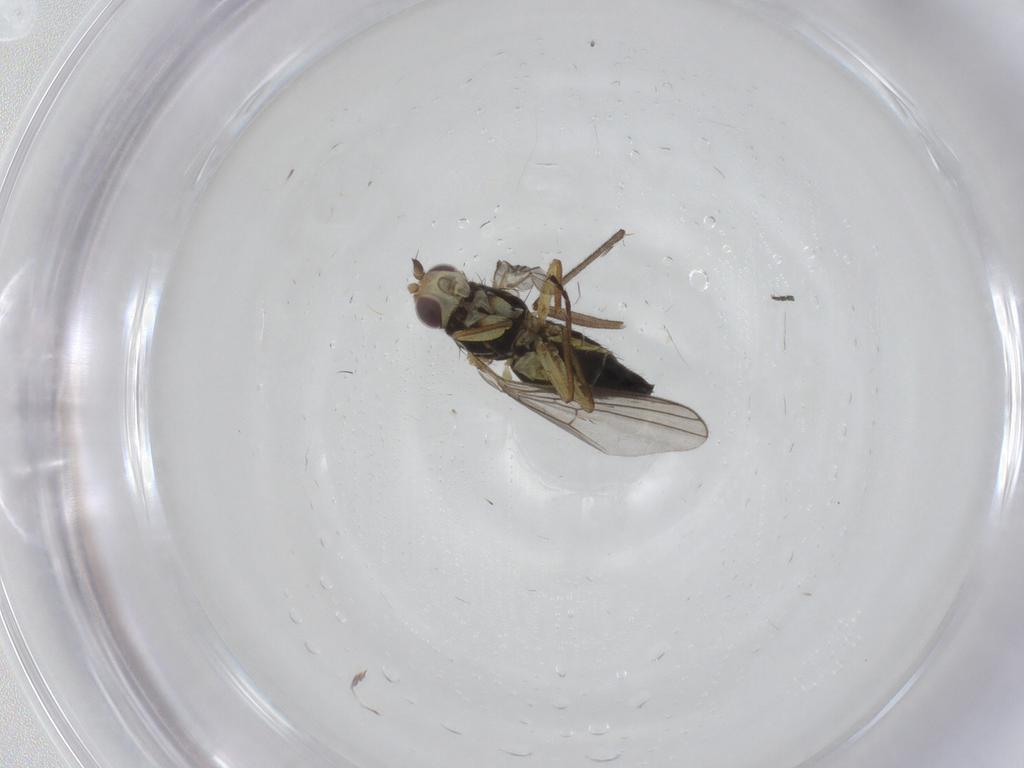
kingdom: Animalia
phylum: Arthropoda
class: Insecta
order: Diptera
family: Agromyzidae
